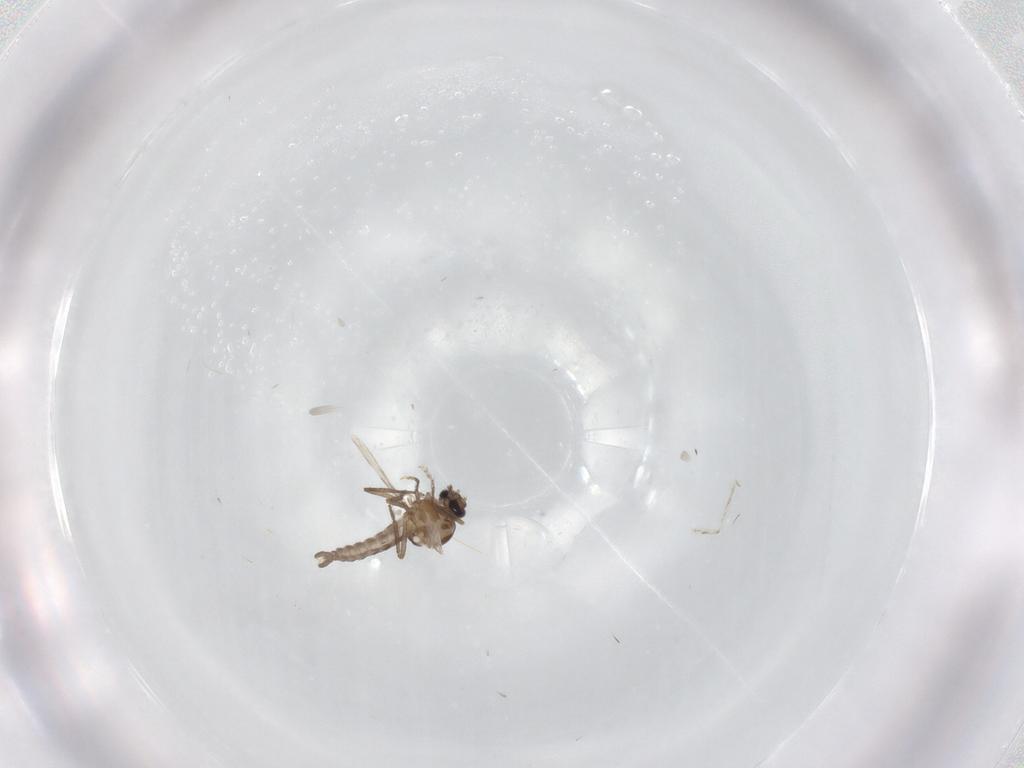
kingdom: Animalia
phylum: Arthropoda
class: Insecta
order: Diptera
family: Ceratopogonidae
